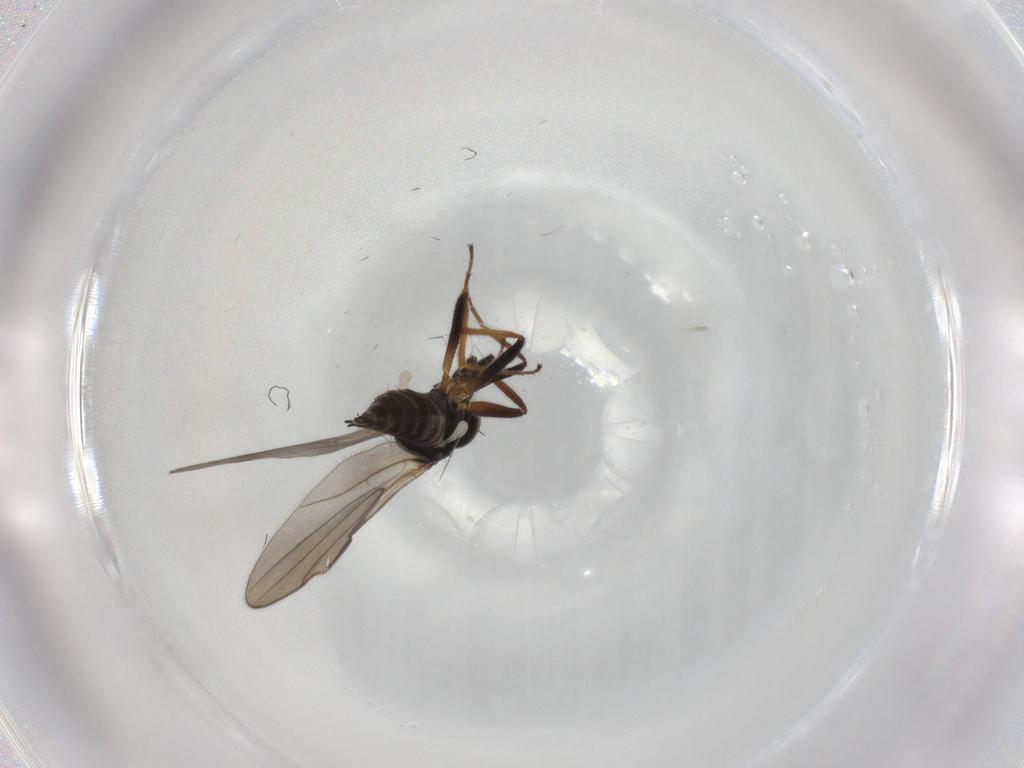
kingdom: Animalia
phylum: Arthropoda
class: Insecta
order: Diptera
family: Hybotidae
